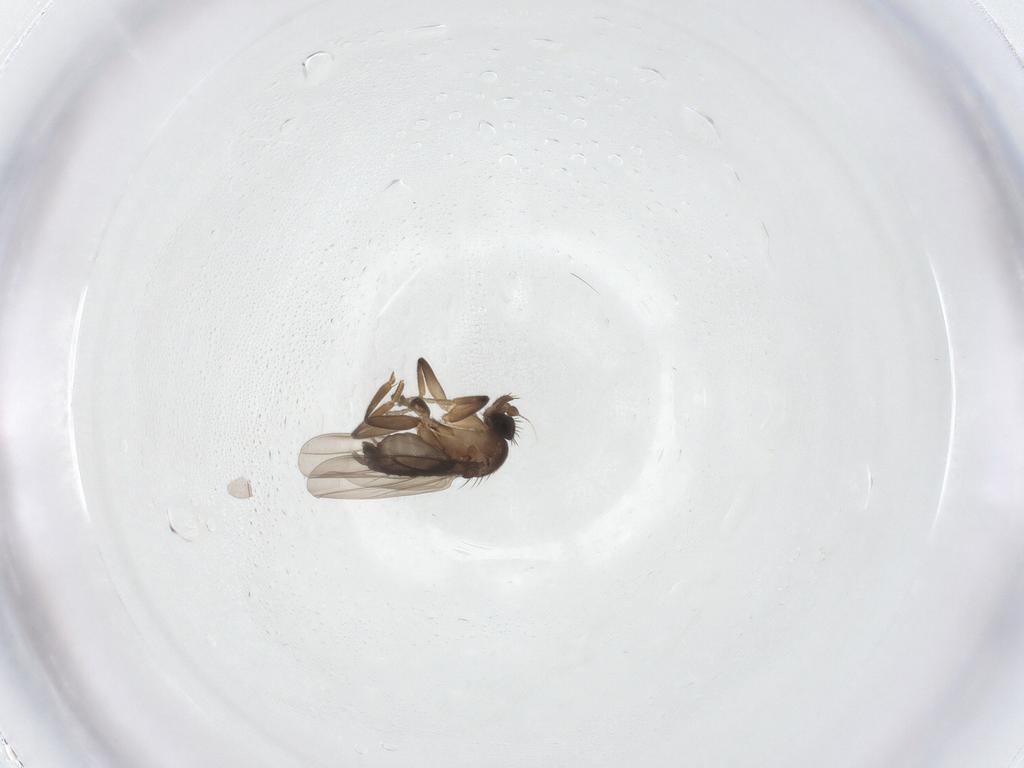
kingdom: Animalia
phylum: Arthropoda
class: Insecta
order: Diptera
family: Phoridae
